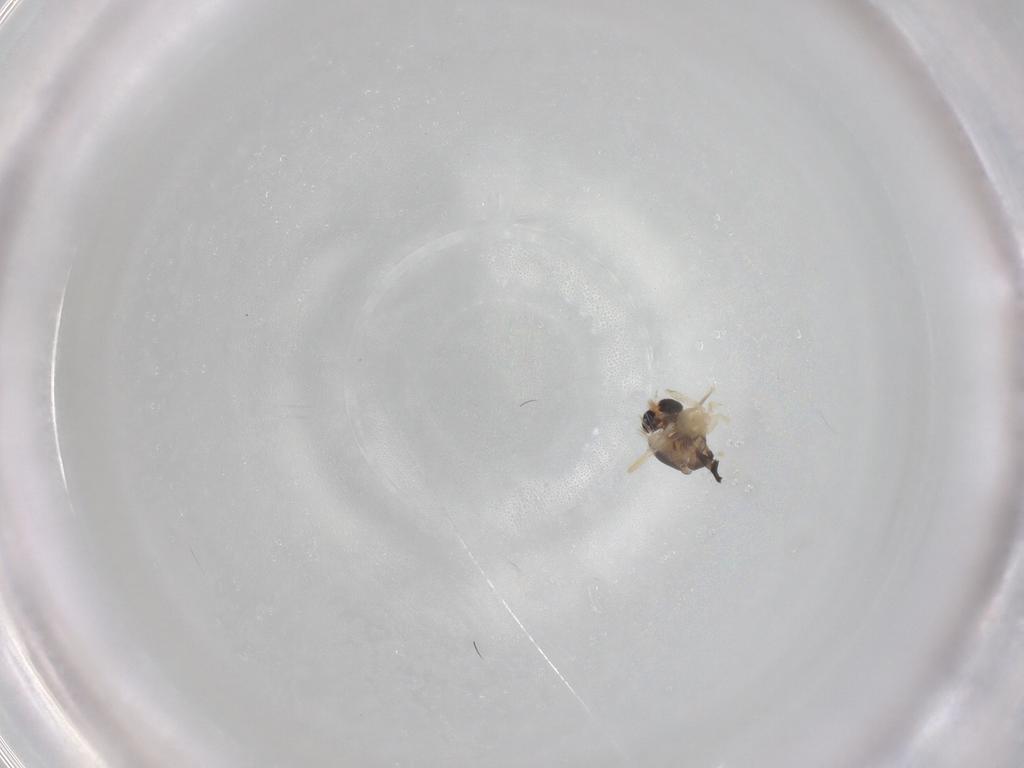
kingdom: Animalia
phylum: Arthropoda
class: Insecta
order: Diptera
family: Chironomidae
